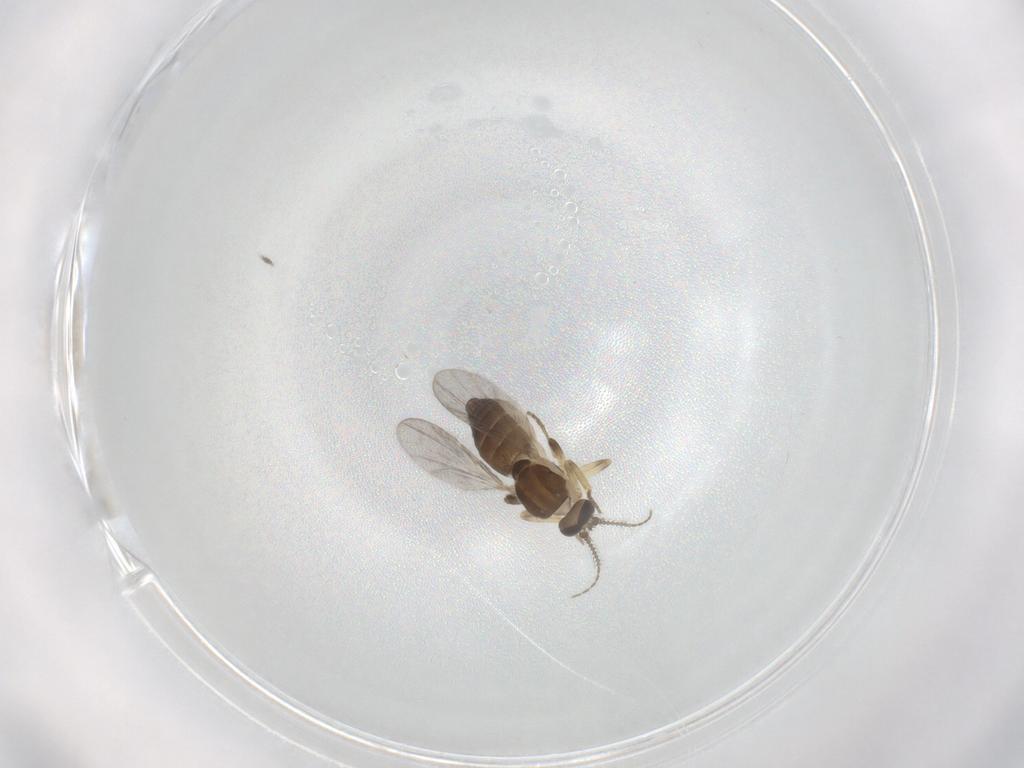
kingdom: Animalia
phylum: Arthropoda
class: Insecta
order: Diptera
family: Ceratopogonidae
